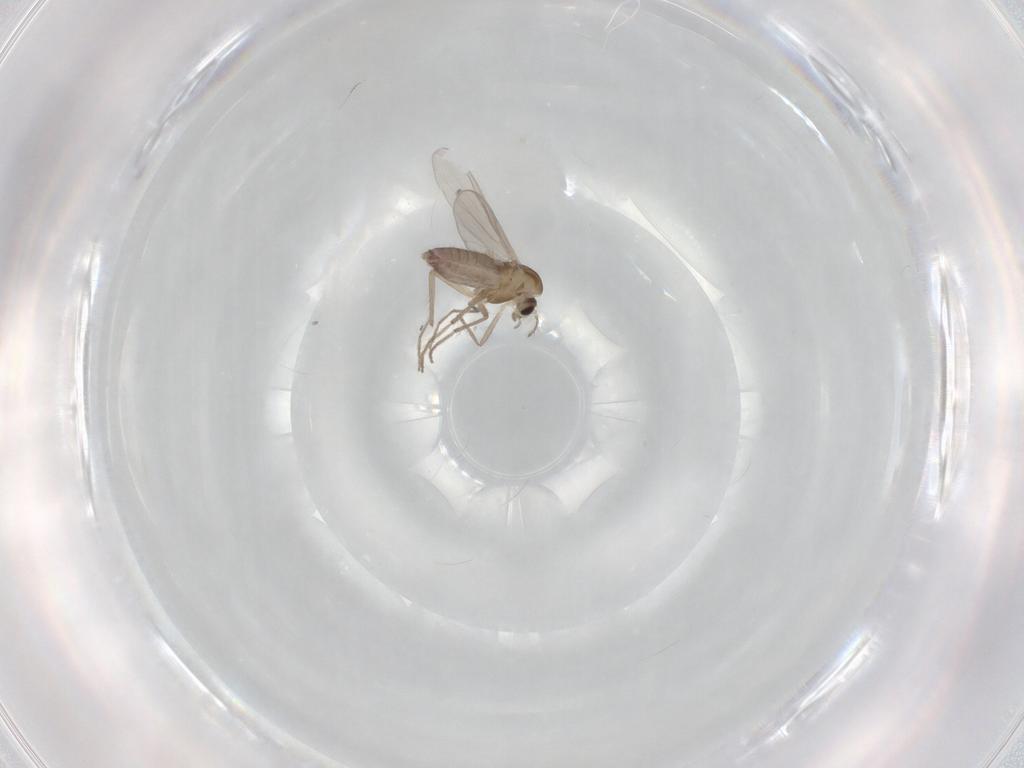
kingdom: Animalia
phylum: Arthropoda
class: Insecta
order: Diptera
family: Chironomidae
